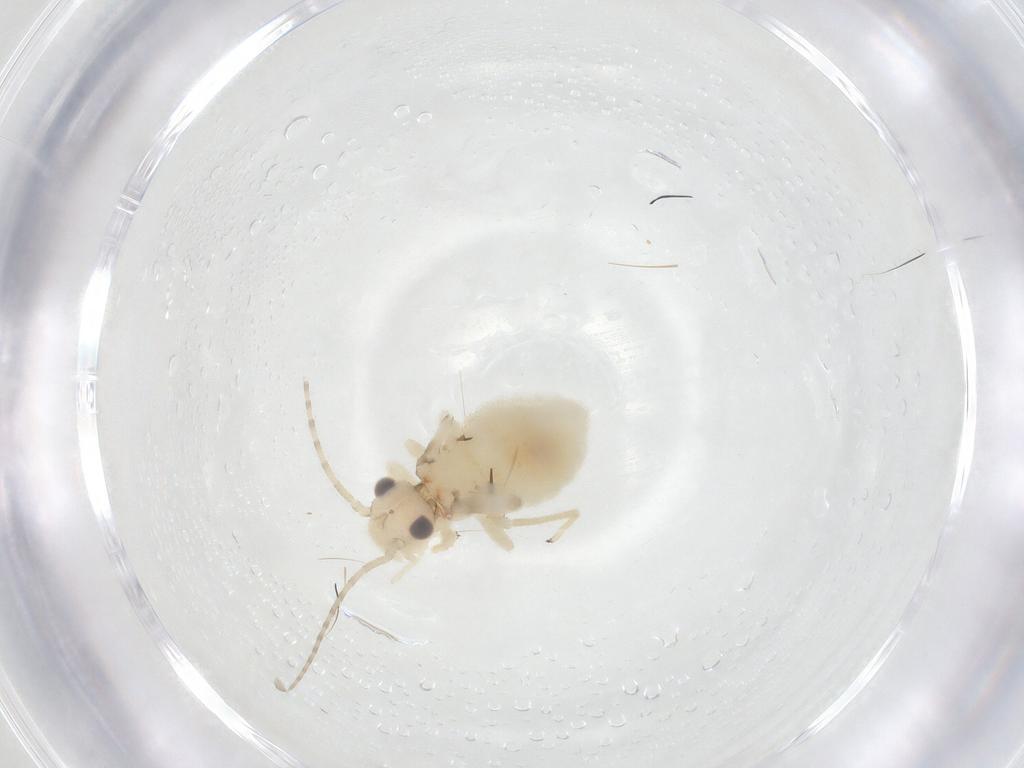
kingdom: Animalia
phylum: Arthropoda
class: Insecta
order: Psocodea
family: Amphipsocidae
